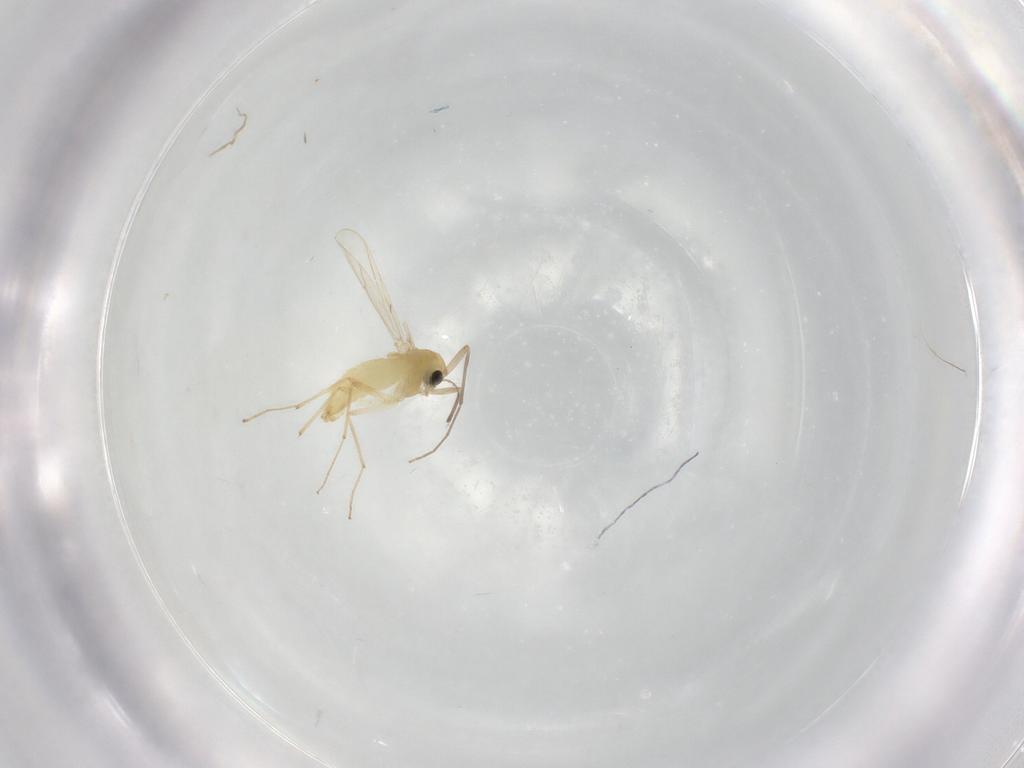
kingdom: Animalia
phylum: Arthropoda
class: Insecta
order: Diptera
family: Chironomidae
